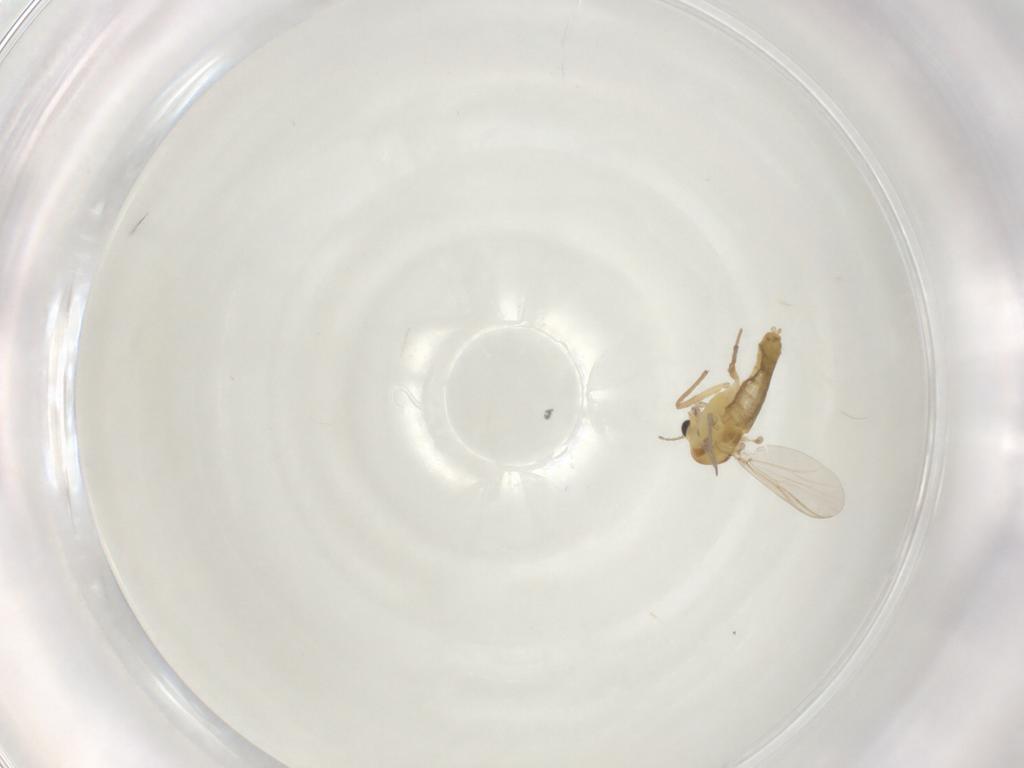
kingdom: Animalia
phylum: Arthropoda
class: Insecta
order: Diptera
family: Chironomidae
